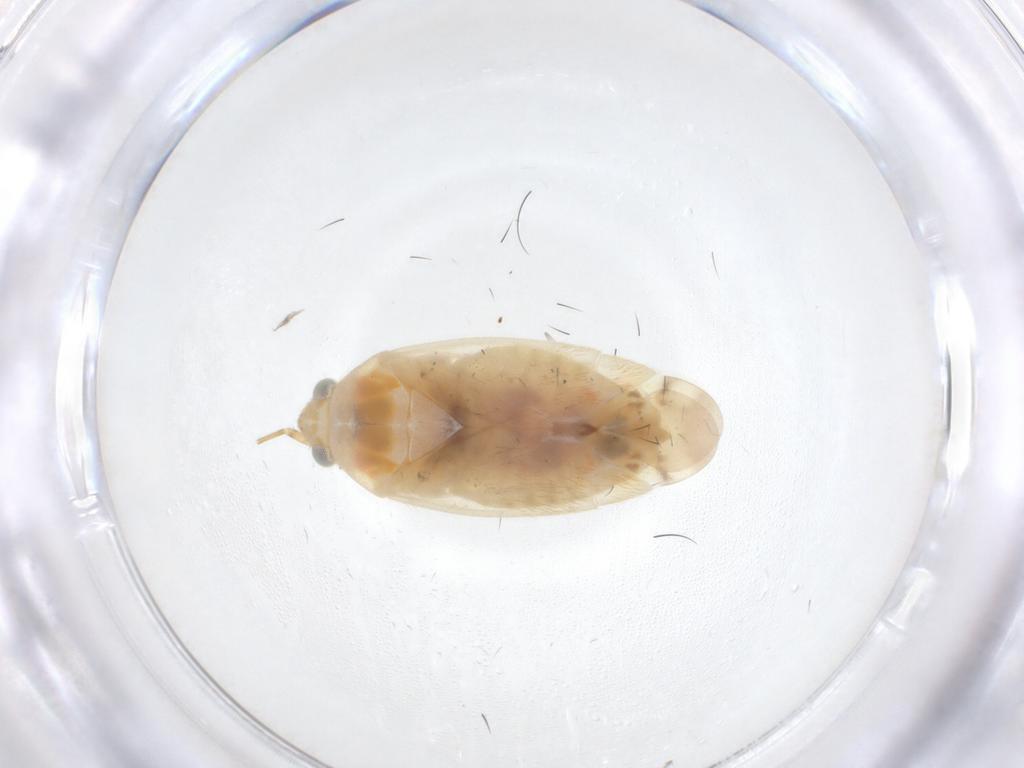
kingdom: Animalia
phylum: Arthropoda
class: Insecta
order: Hemiptera
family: Miridae
